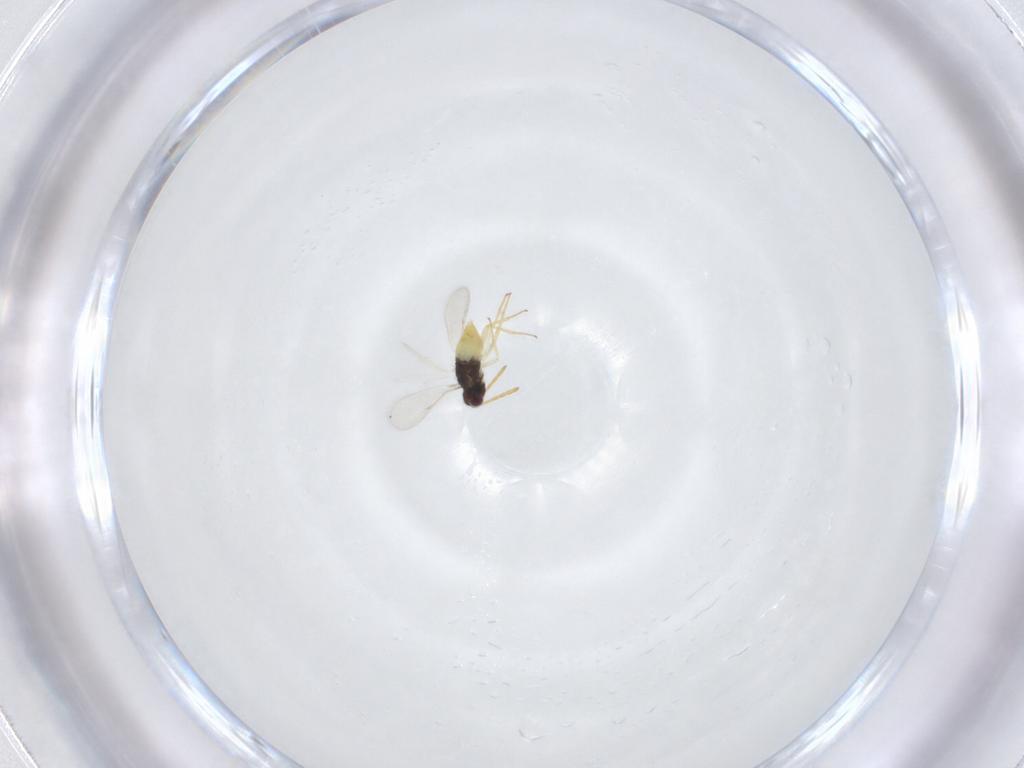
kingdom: Animalia
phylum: Arthropoda
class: Insecta
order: Hymenoptera
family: Aphelinidae
